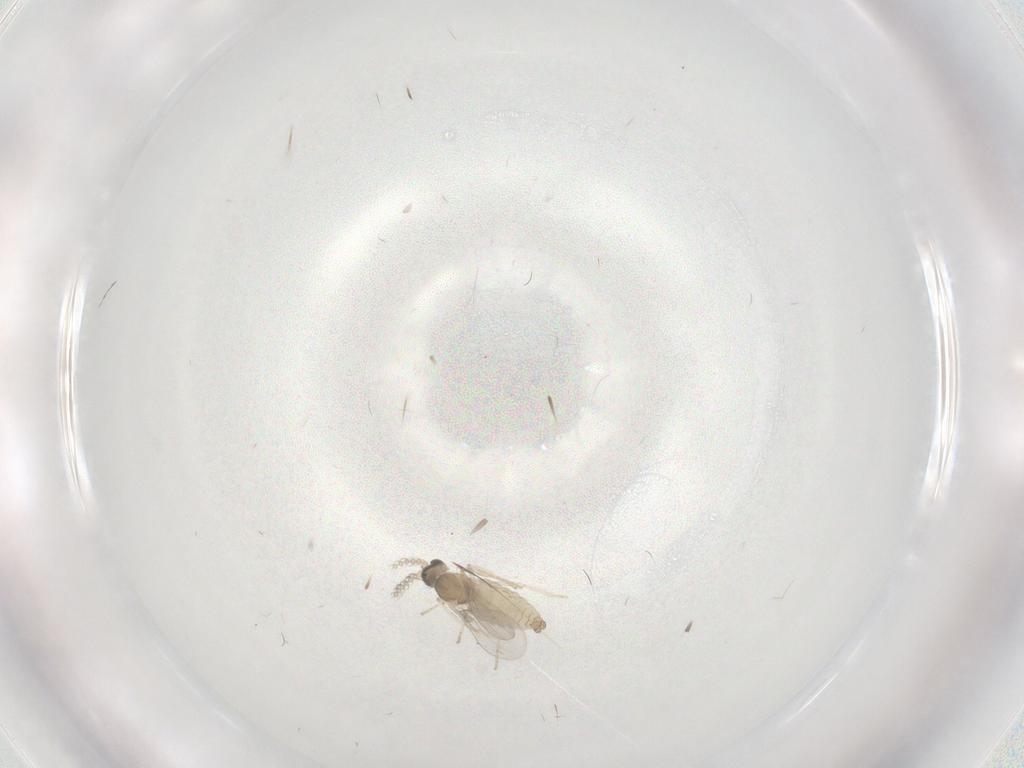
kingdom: Animalia
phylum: Arthropoda
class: Insecta
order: Diptera
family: Cecidomyiidae
